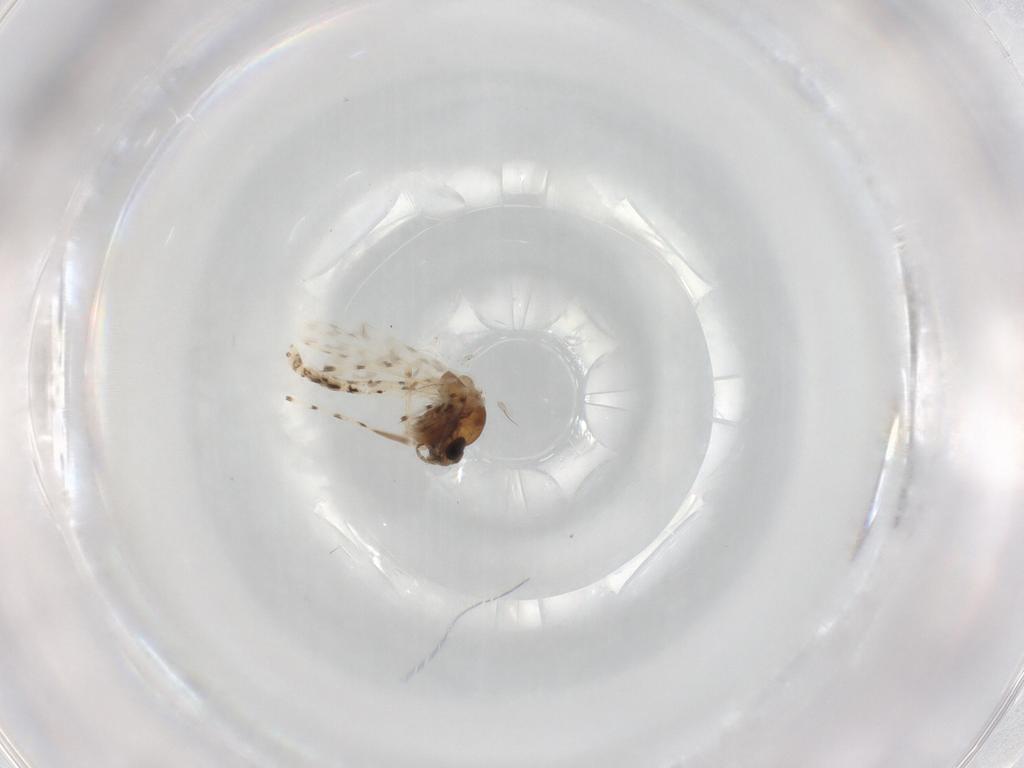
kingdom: Animalia
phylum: Arthropoda
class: Insecta
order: Diptera
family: Chironomidae
